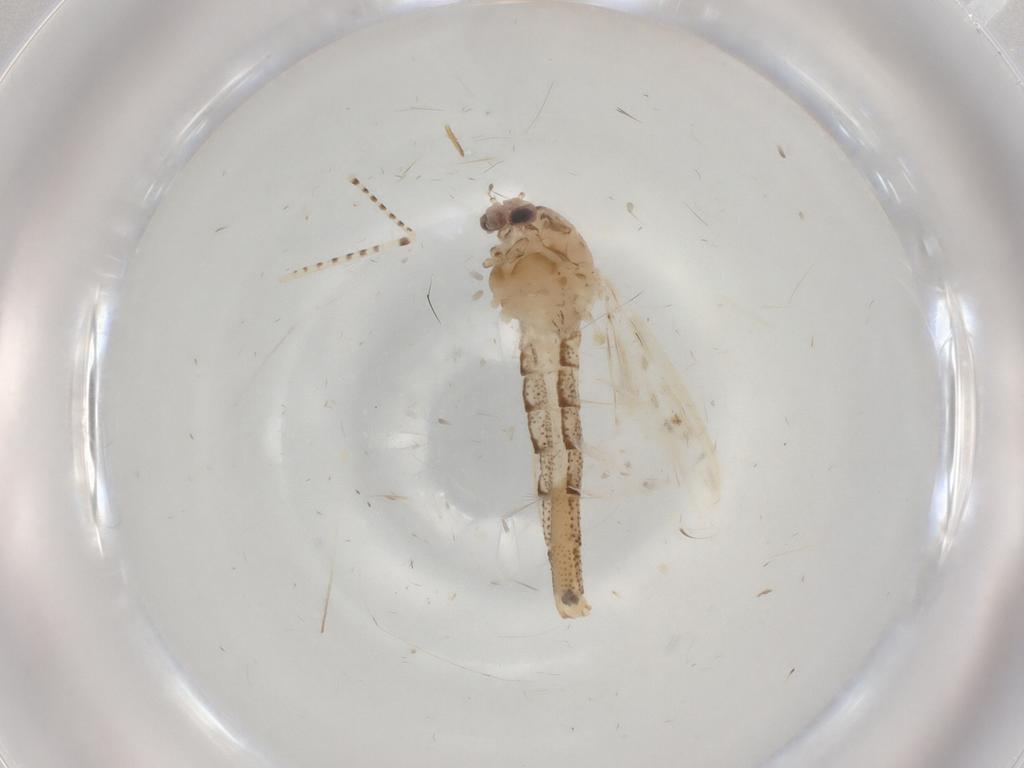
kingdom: Animalia
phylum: Arthropoda
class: Insecta
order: Diptera
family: Chaoboridae
